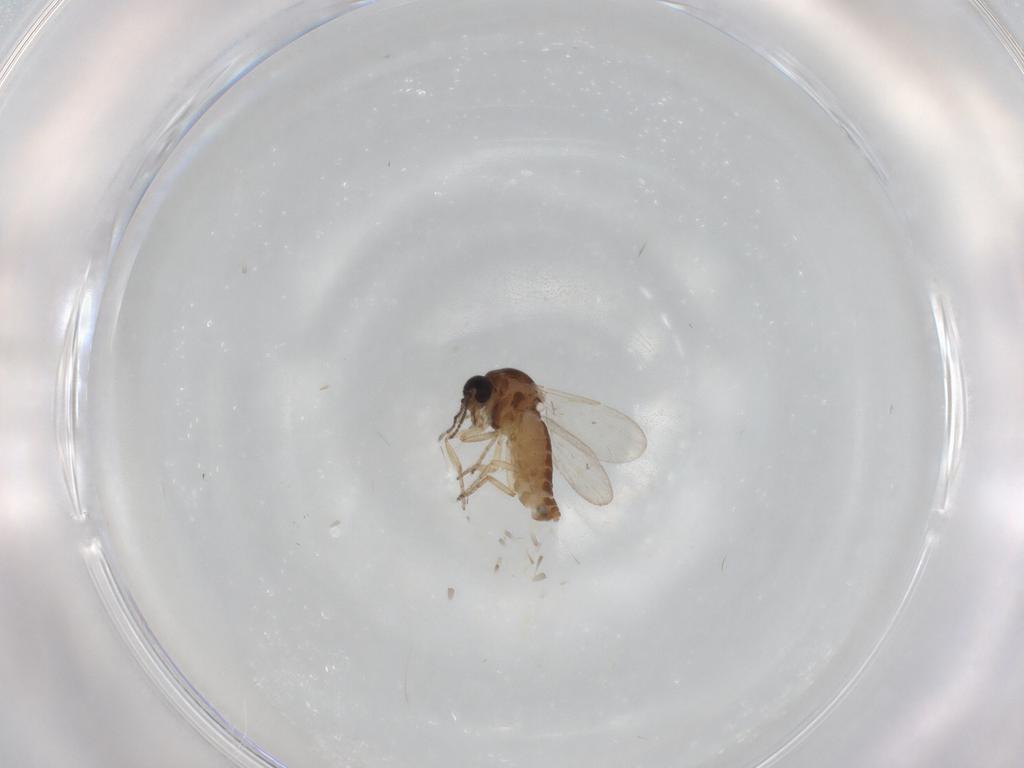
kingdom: Animalia
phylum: Arthropoda
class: Insecta
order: Diptera
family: Ceratopogonidae
